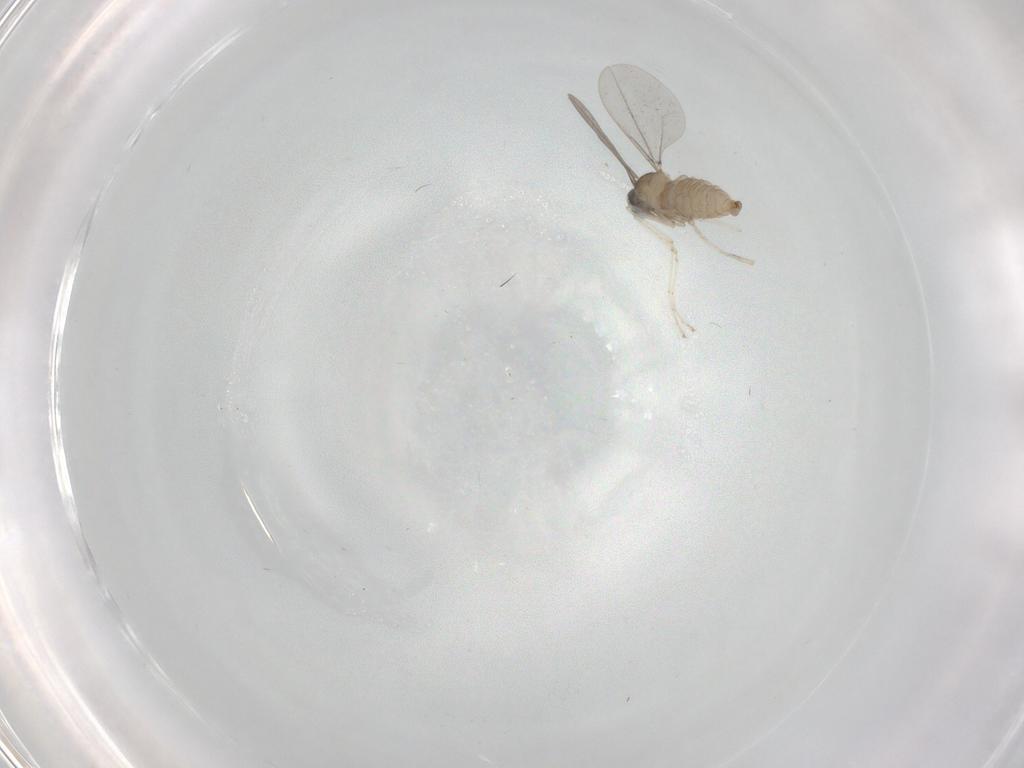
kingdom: Animalia
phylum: Arthropoda
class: Insecta
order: Diptera
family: Cecidomyiidae
